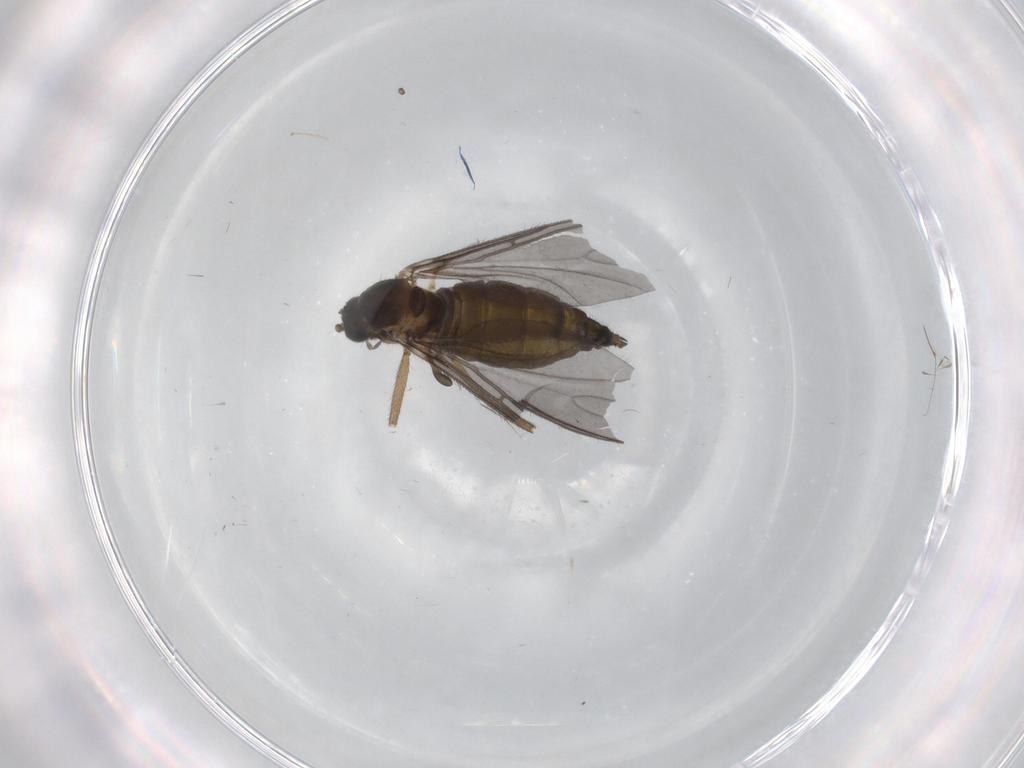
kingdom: Animalia
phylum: Arthropoda
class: Insecta
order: Diptera
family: Sciaridae
